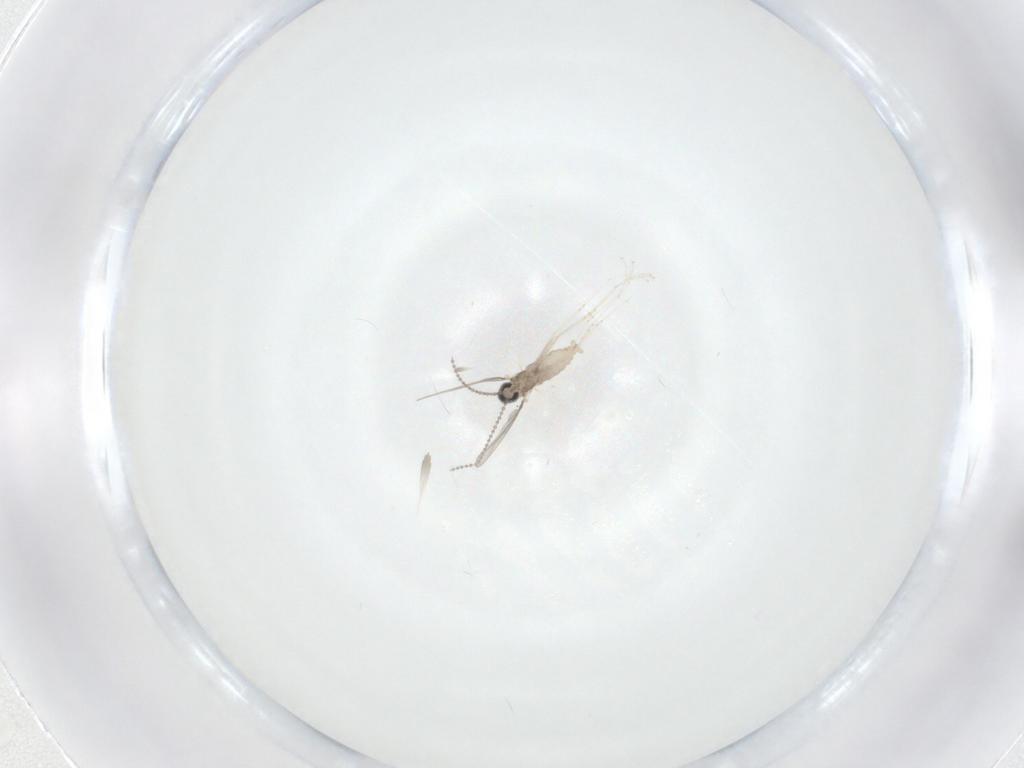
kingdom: Animalia
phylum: Arthropoda
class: Insecta
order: Diptera
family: Cecidomyiidae
